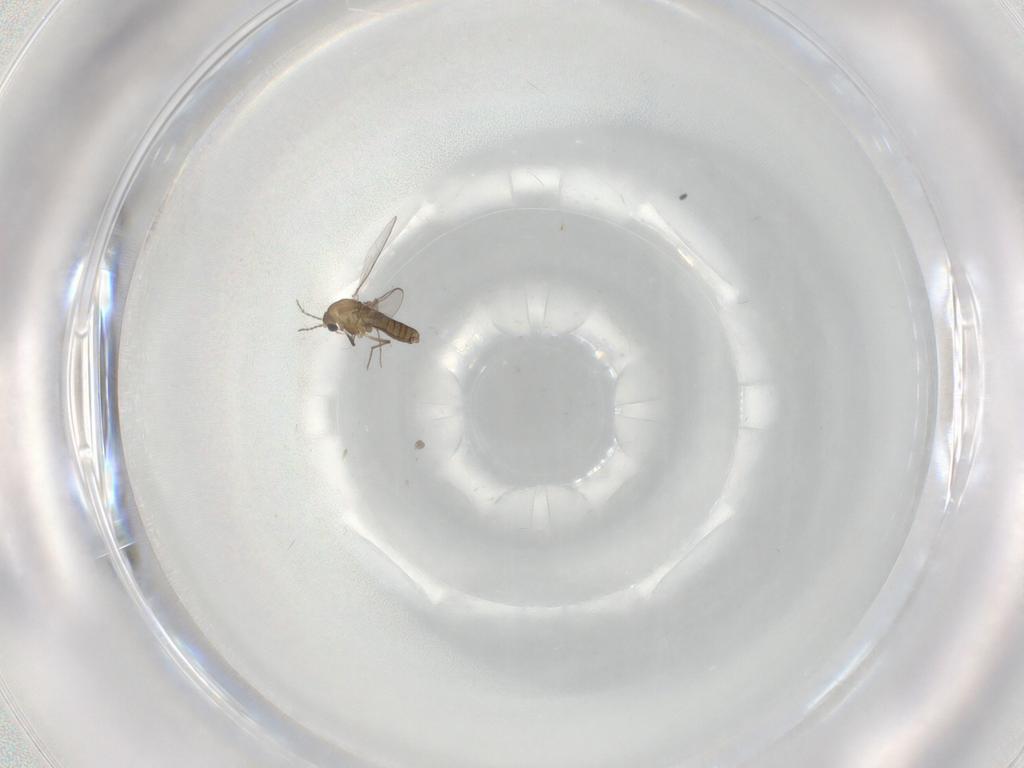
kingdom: Animalia
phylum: Arthropoda
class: Insecta
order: Diptera
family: Chironomidae
